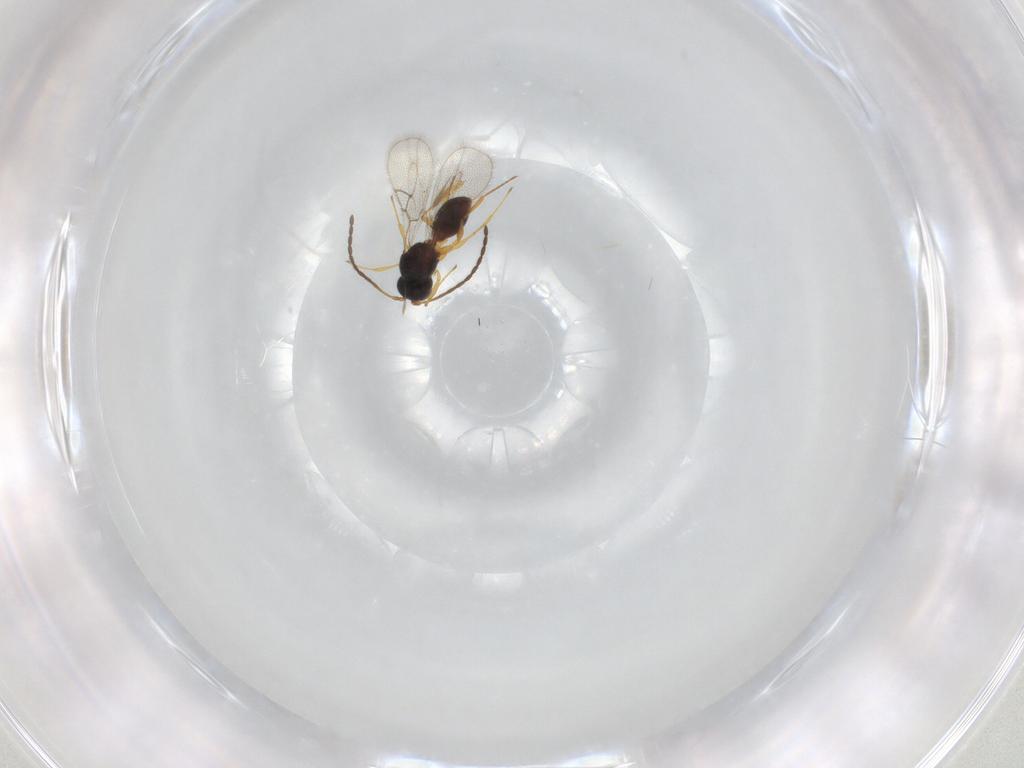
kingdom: Animalia
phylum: Arthropoda
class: Insecta
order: Hymenoptera
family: Figitidae
